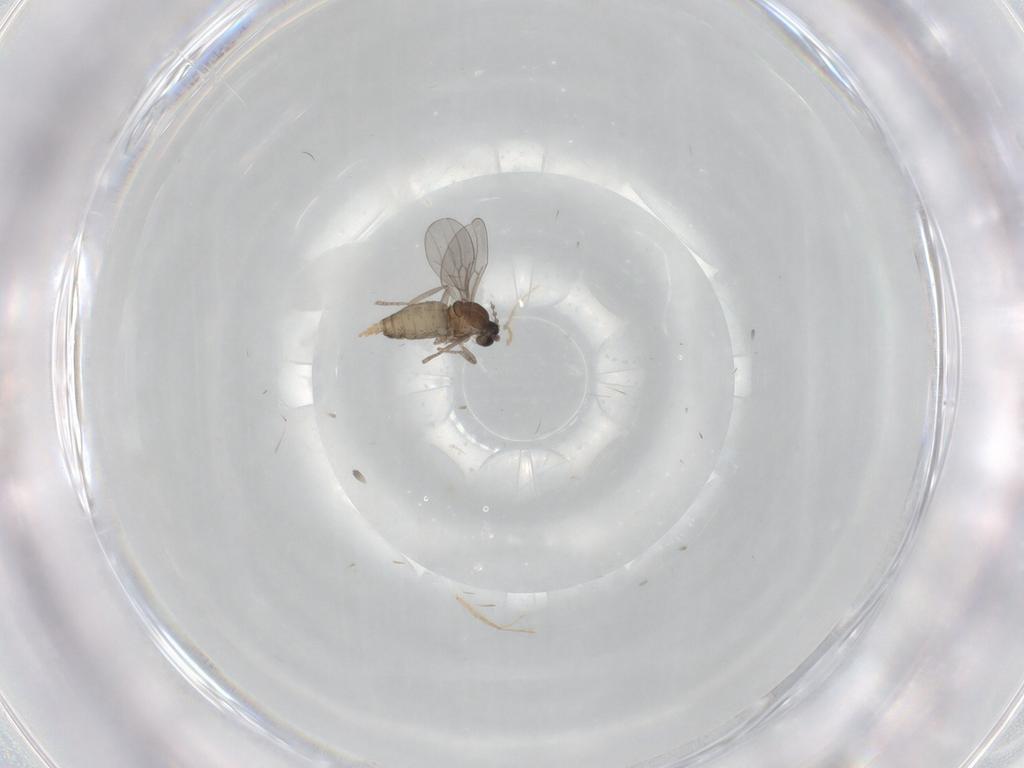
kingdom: Animalia
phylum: Arthropoda
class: Insecta
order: Diptera
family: Cecidomyiidae
